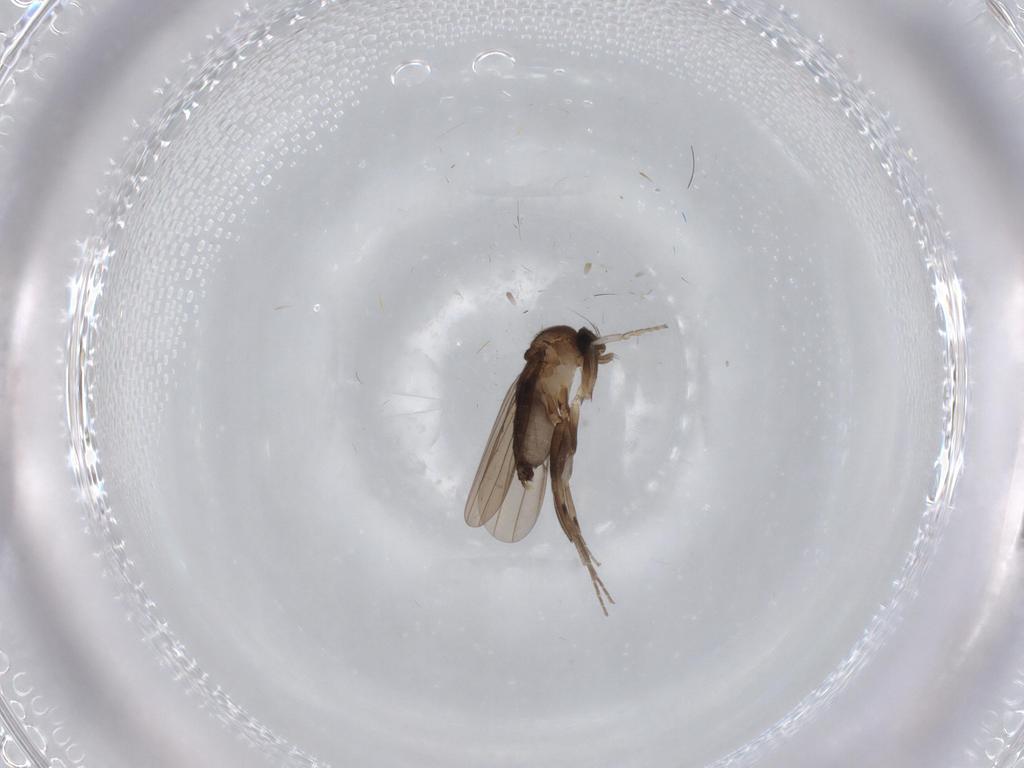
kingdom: Animalia
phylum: Arthropoda
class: Insecta
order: Diptera
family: Phoridae
